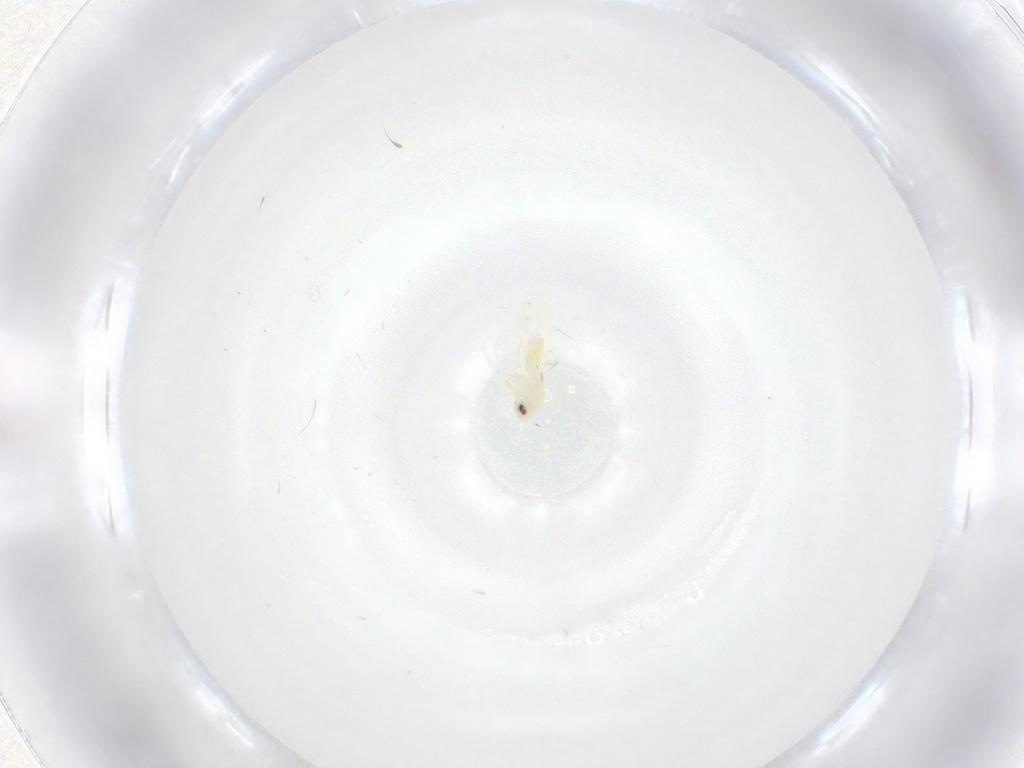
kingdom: Animalia
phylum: Arthropoda
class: Insecta
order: Hemiptera
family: Aleyrodidae
